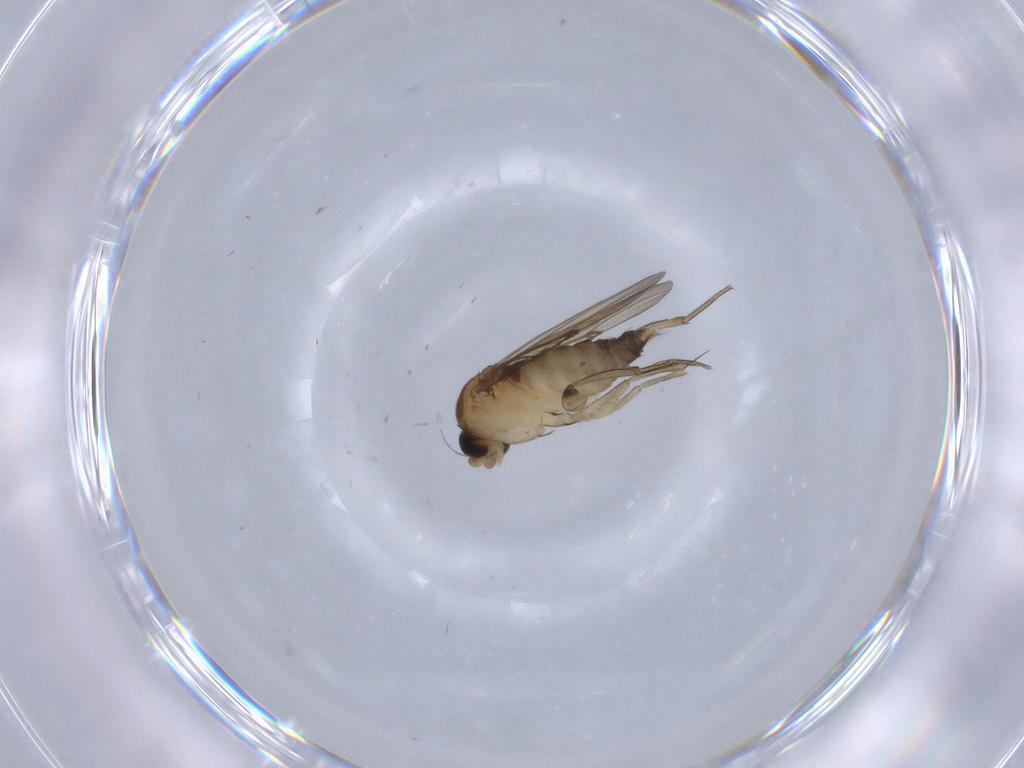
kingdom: Animalia
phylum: Arthropoda
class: Insecta
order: Diptera
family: Phoridae
